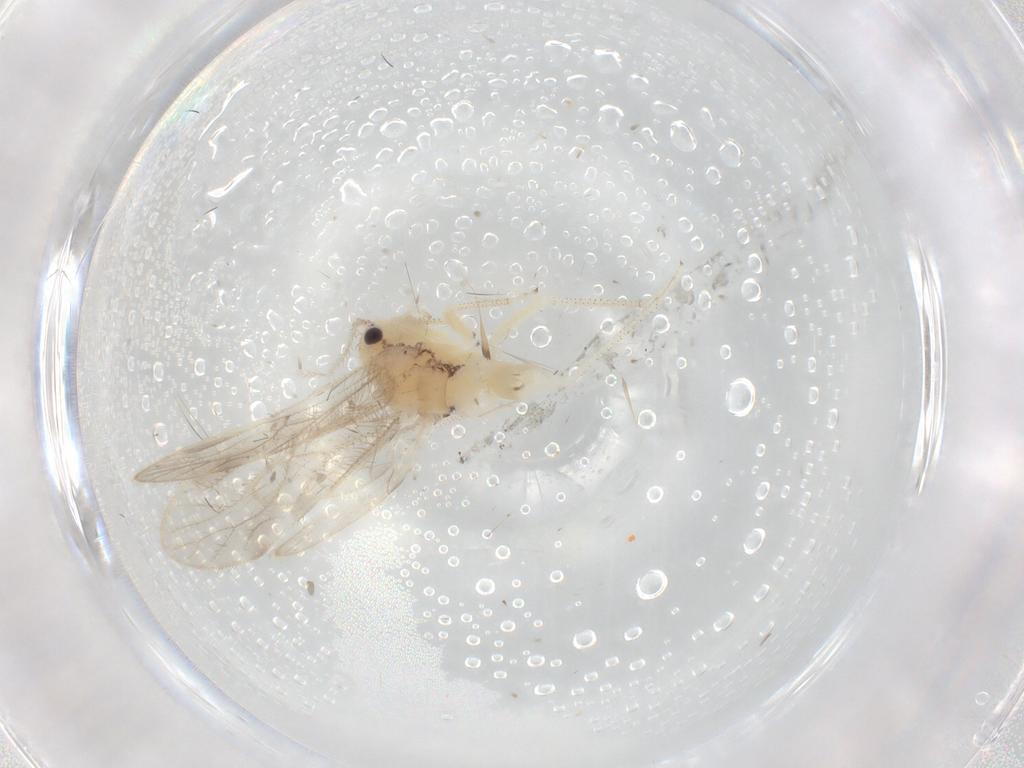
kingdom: Animalia
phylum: Arthropoda
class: Insecta
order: Psocodea
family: Pseudocaeciliidae
